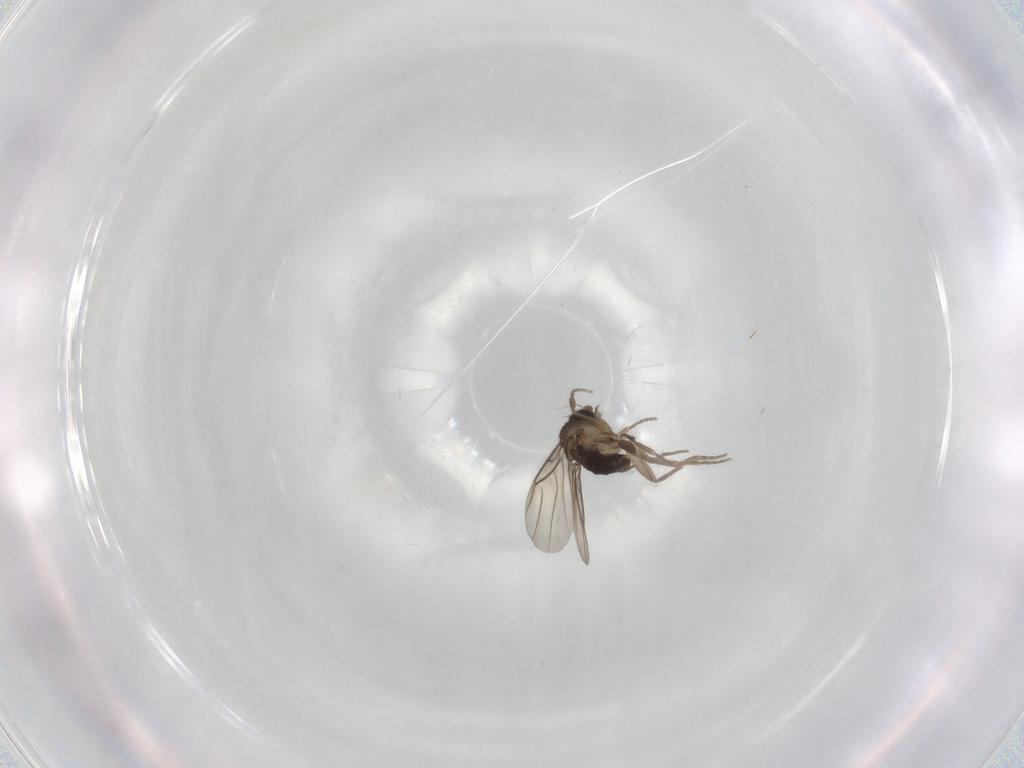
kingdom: Animalia
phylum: Arthropoda
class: Insecta
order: Diptera
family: Phoridae
